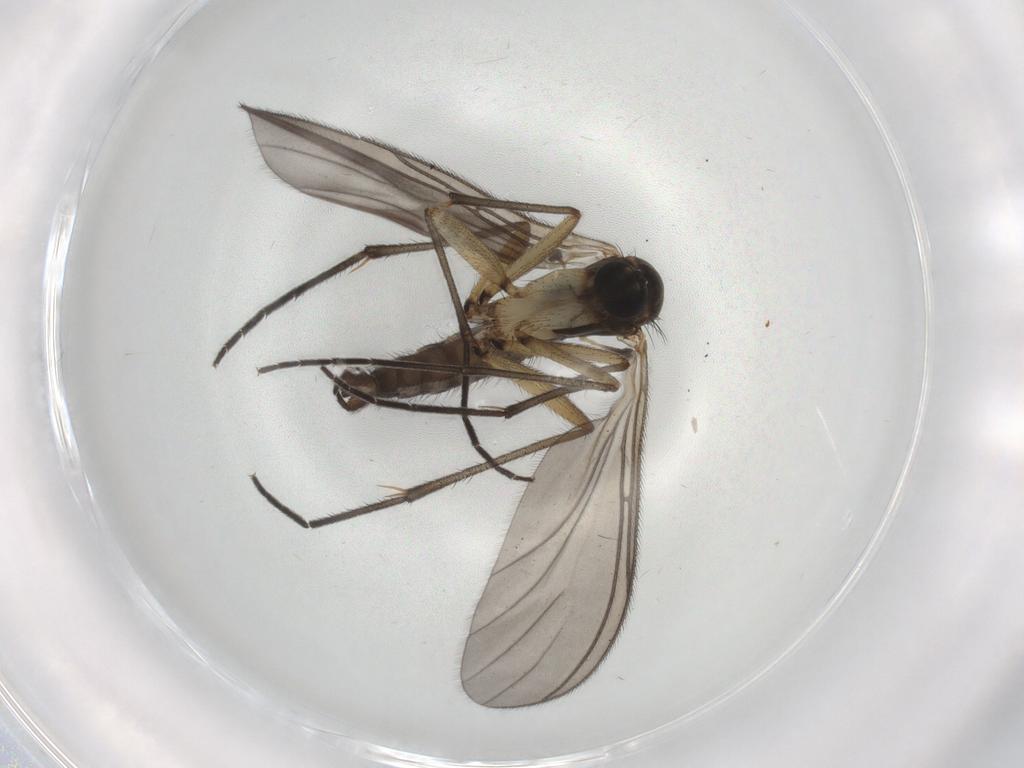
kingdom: Animalia
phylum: Arthropoda
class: Insecta
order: Diptera
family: Sciaridae
